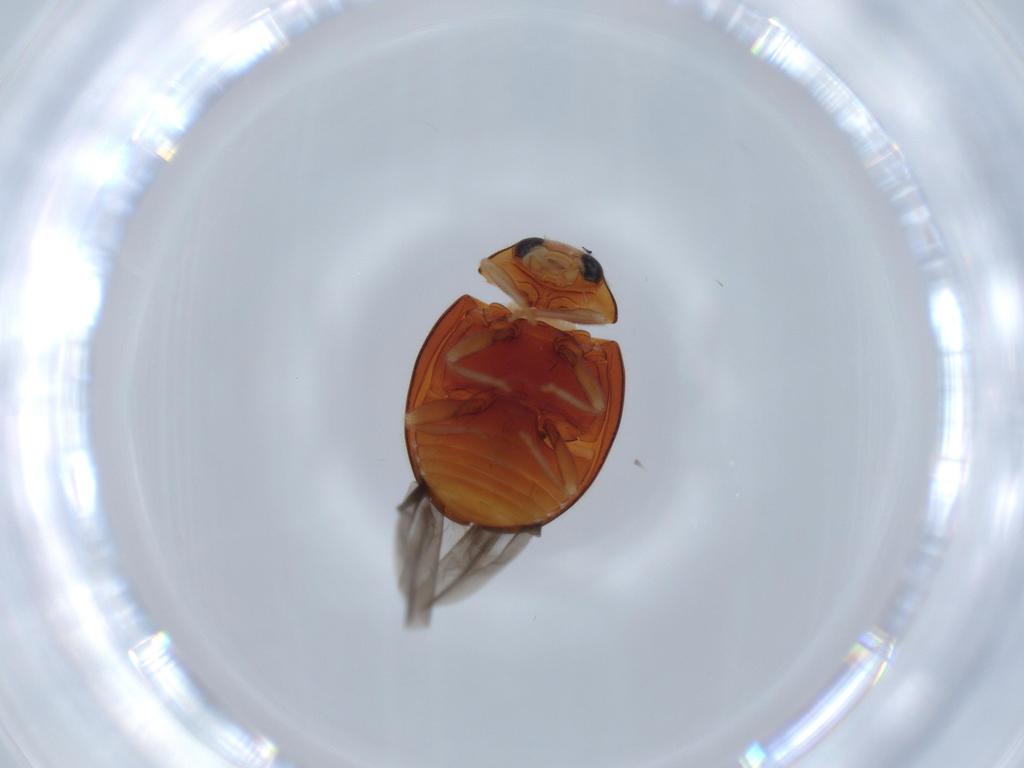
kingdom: Animalia
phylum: Arthropoda
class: Insecta
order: Coleoptera
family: Coccinellidae
